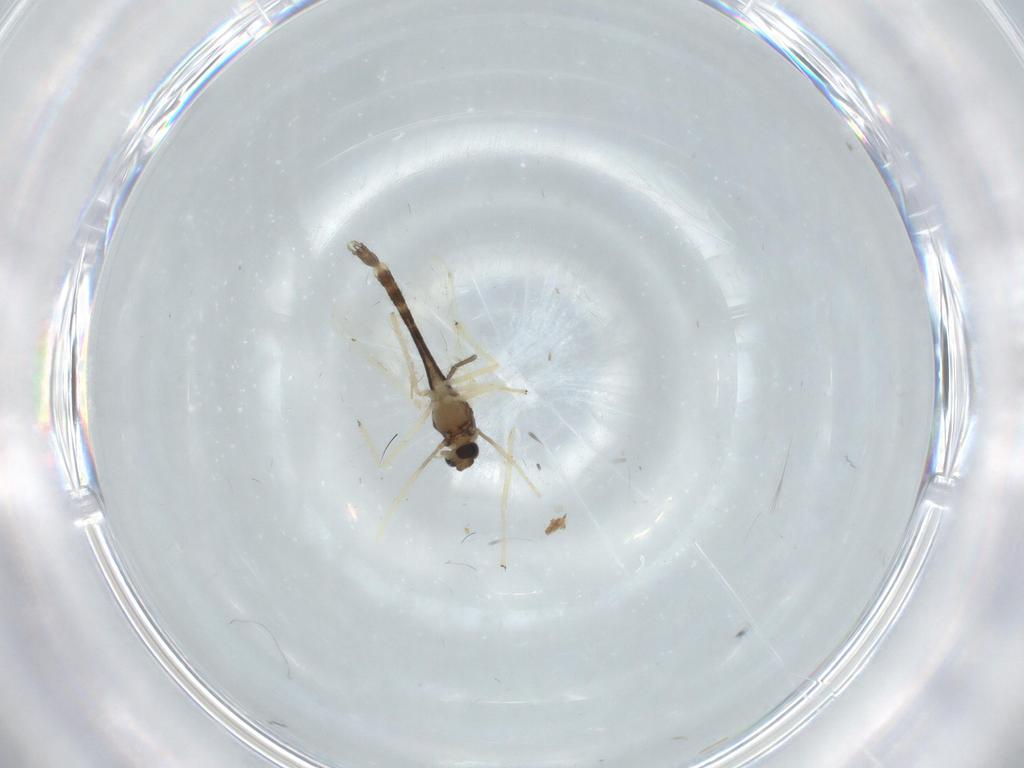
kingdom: Animalia
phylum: Arthropoda
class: Insecta
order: Diptera
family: Chironomidae
